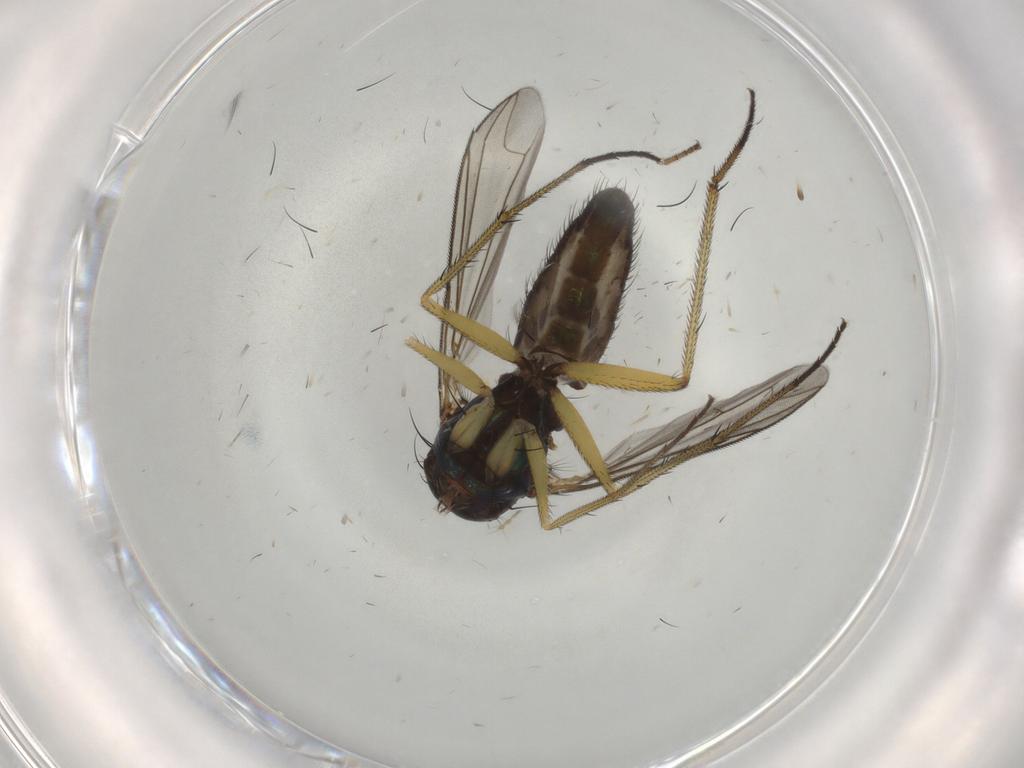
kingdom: Animalia
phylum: Arthropoda
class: Insecta
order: Diptera
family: Dolichopodidae
